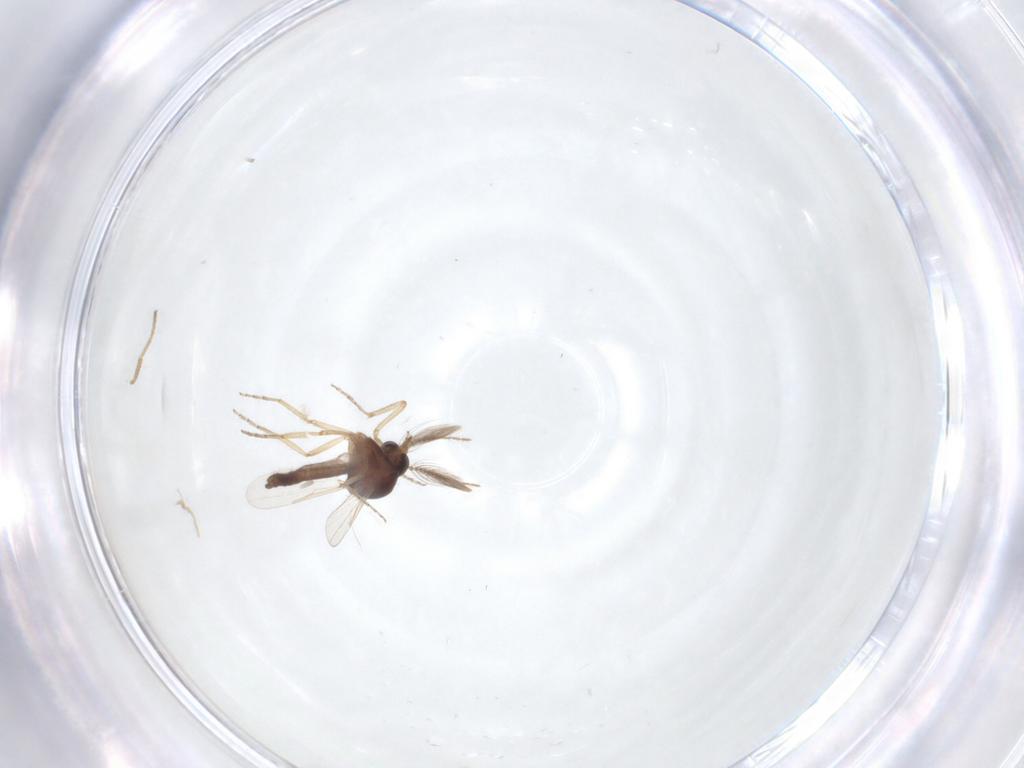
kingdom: Animalia
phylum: Arthropoda
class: Insecta
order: Diptera
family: Ceratopogonidae
